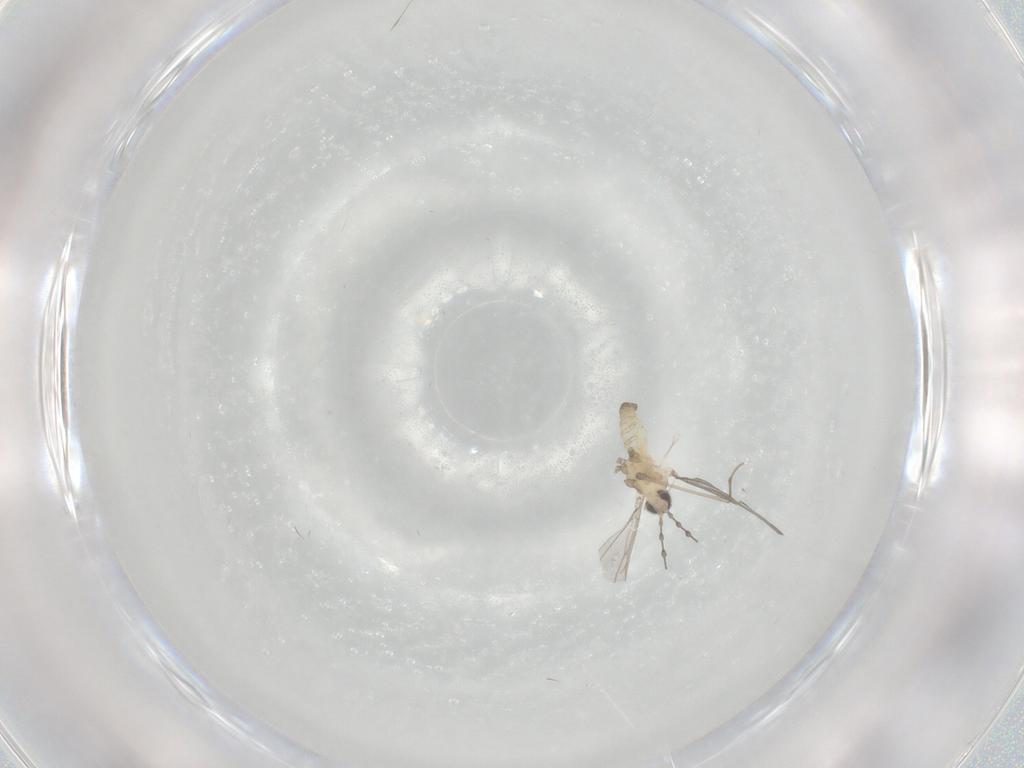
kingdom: Animalia
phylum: Arthropoda
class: Insecta
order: Diptera
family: Cecidomyiidae
